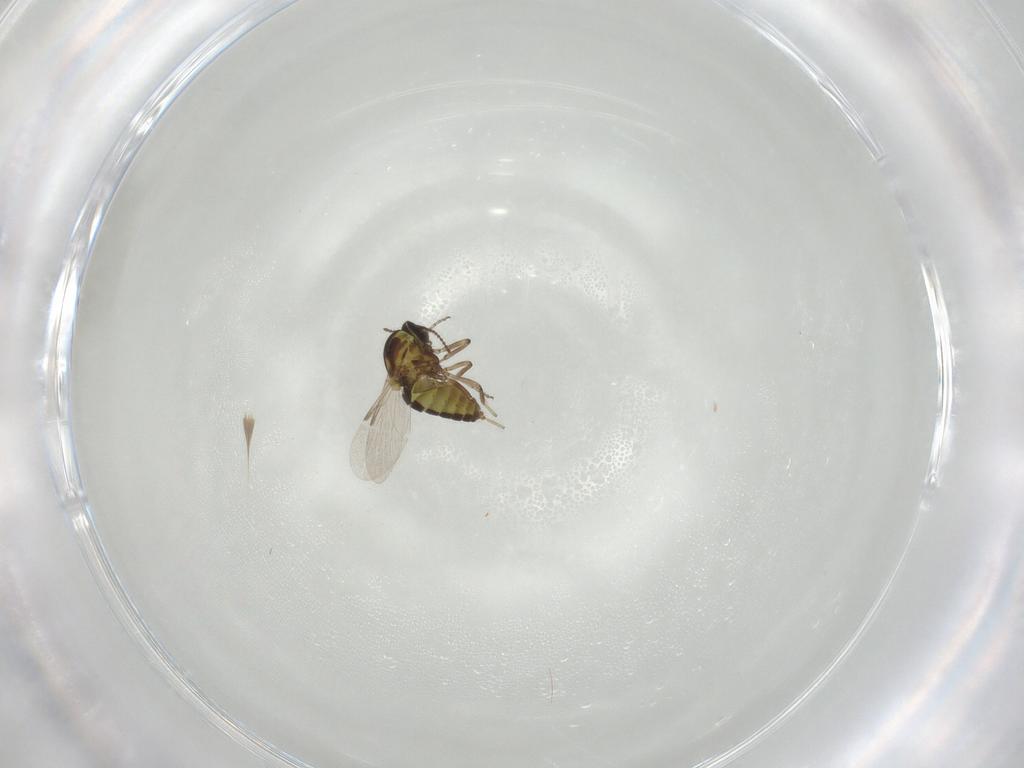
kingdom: Animalia
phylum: Arthropoda
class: Insecta
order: Diptera
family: Ceratopogonidae
